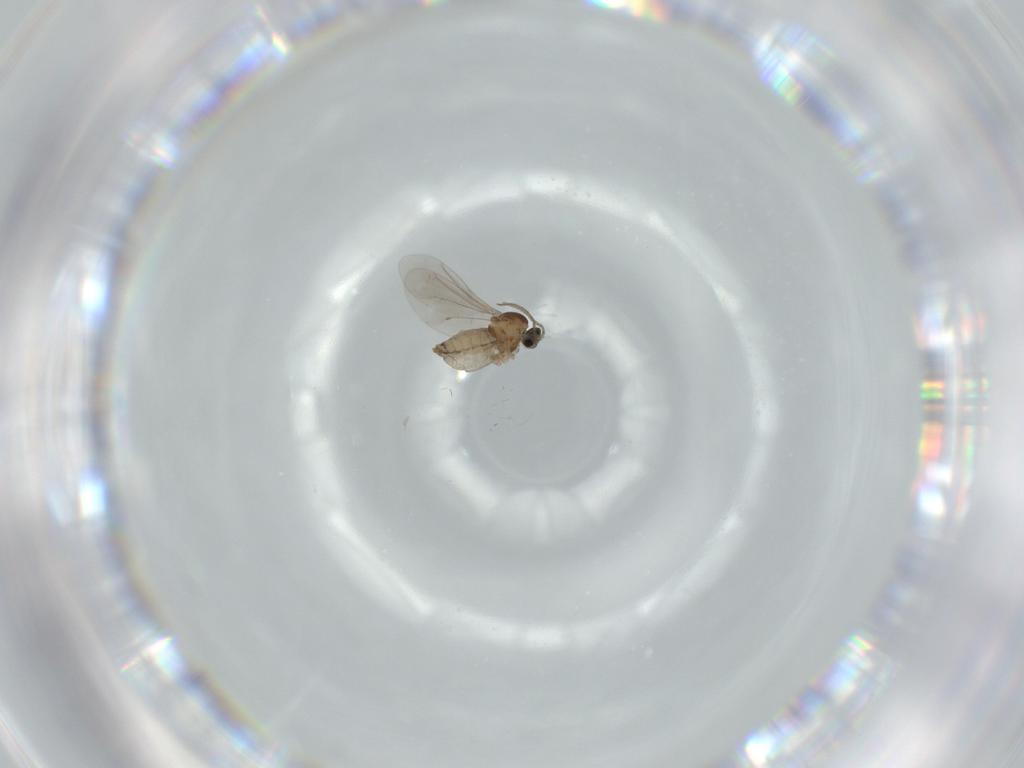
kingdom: Animalia
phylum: Arthropoda
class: Insecta
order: Diptera
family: Cecidomyiidae
